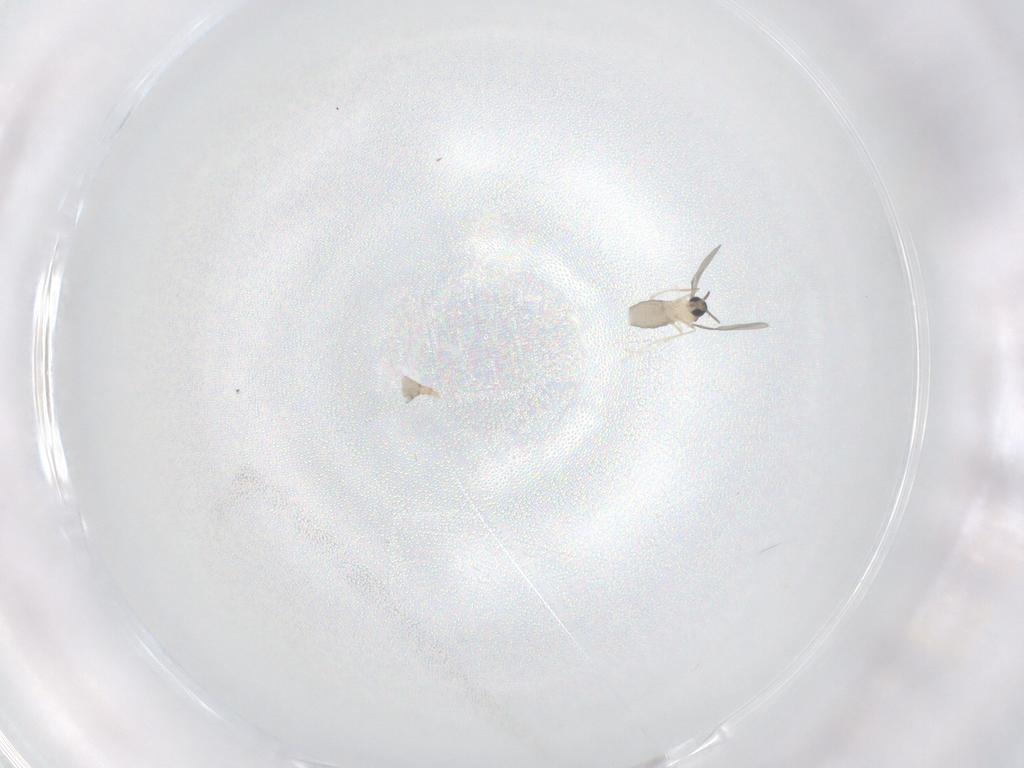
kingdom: Animalia
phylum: Arthropoda
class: Insecta
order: Diptera
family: Cecidomyiidae
